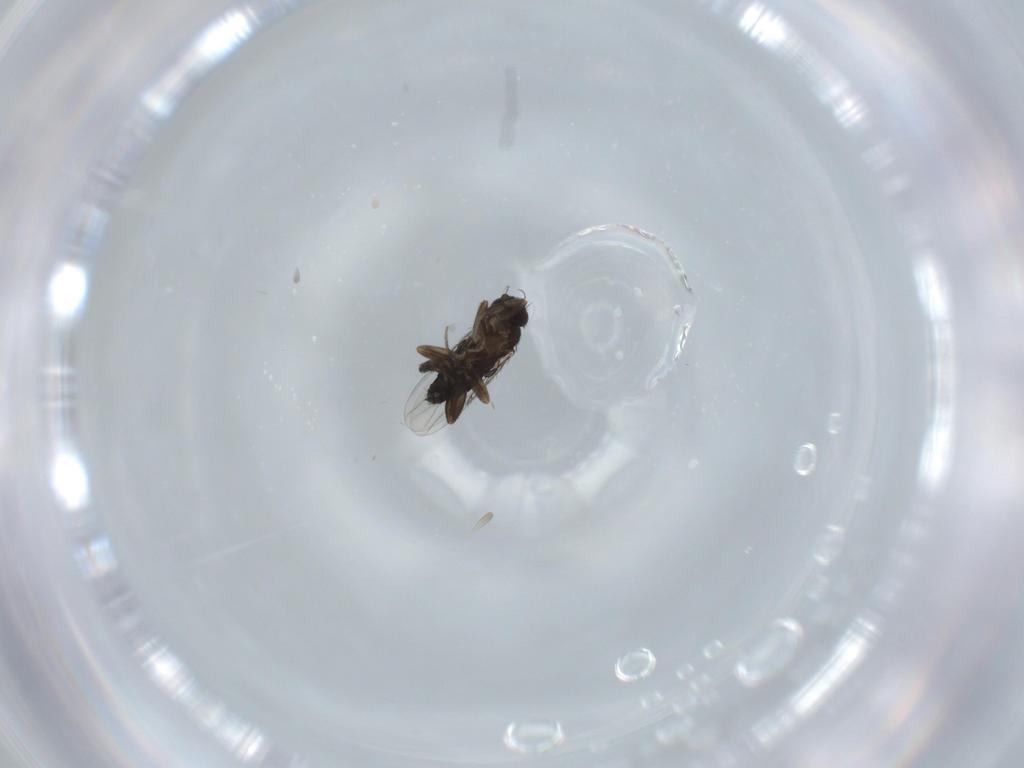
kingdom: Animalia
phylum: Arthropoda
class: Insecta
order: Diptera
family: Phoridae
